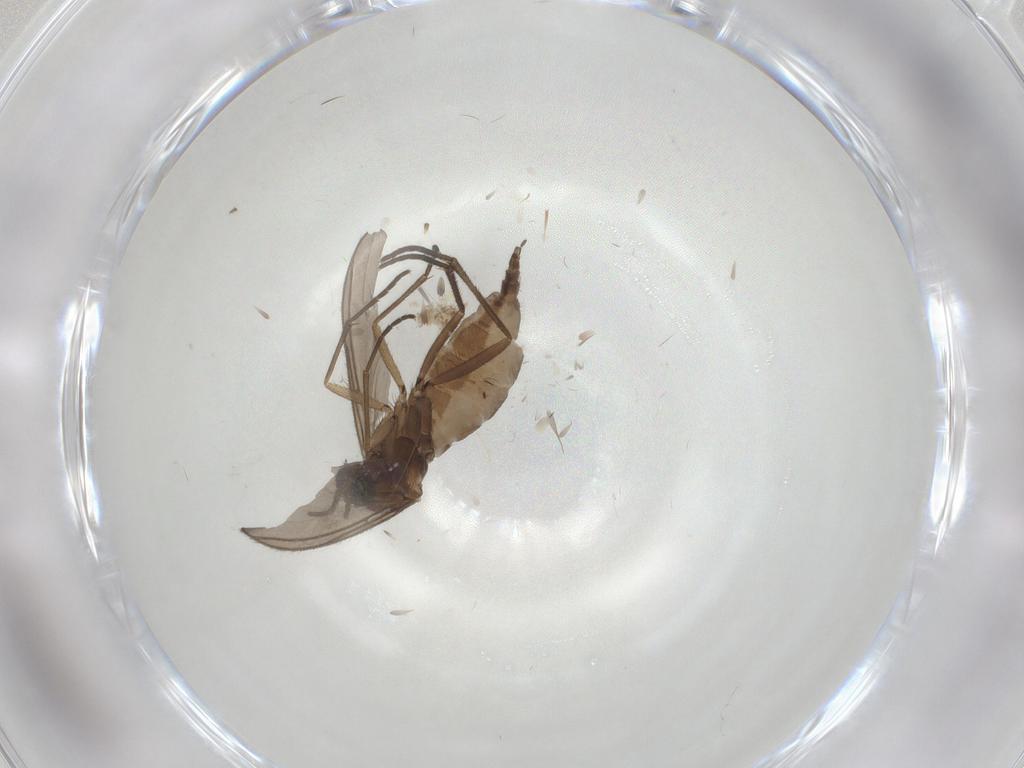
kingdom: Animalia
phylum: Arthropoda
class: Insecta
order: Diptera
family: Sciaridae
